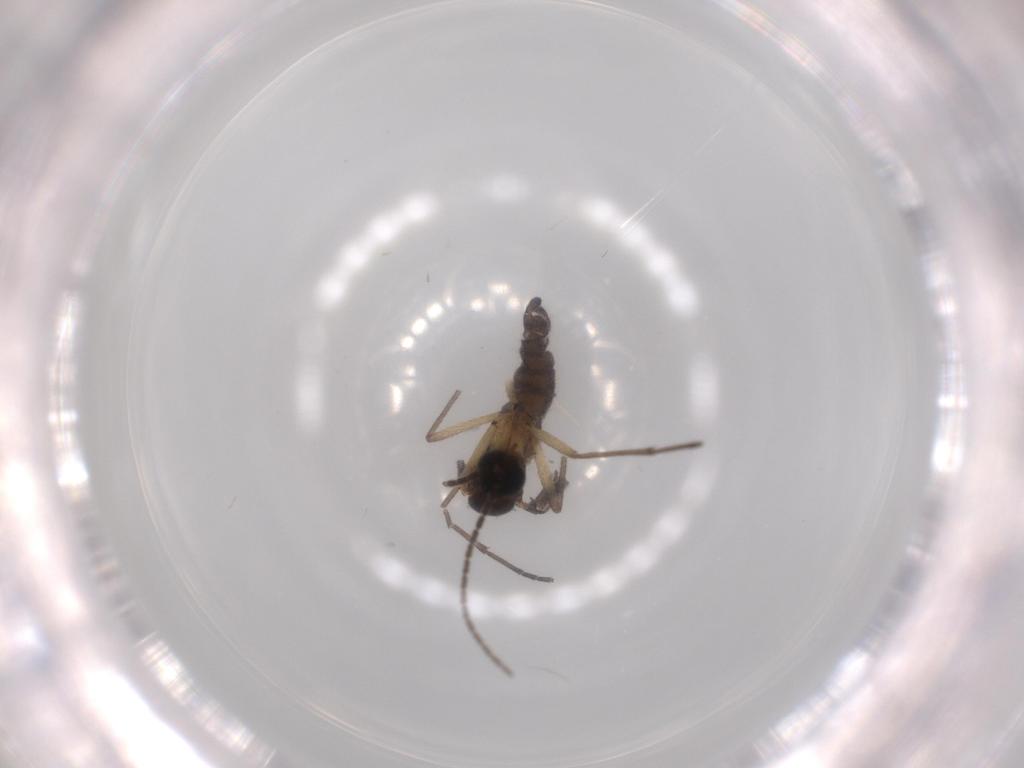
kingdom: Animalia
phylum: Arthropoda
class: Insecta
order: Diptera
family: Sciaridae
